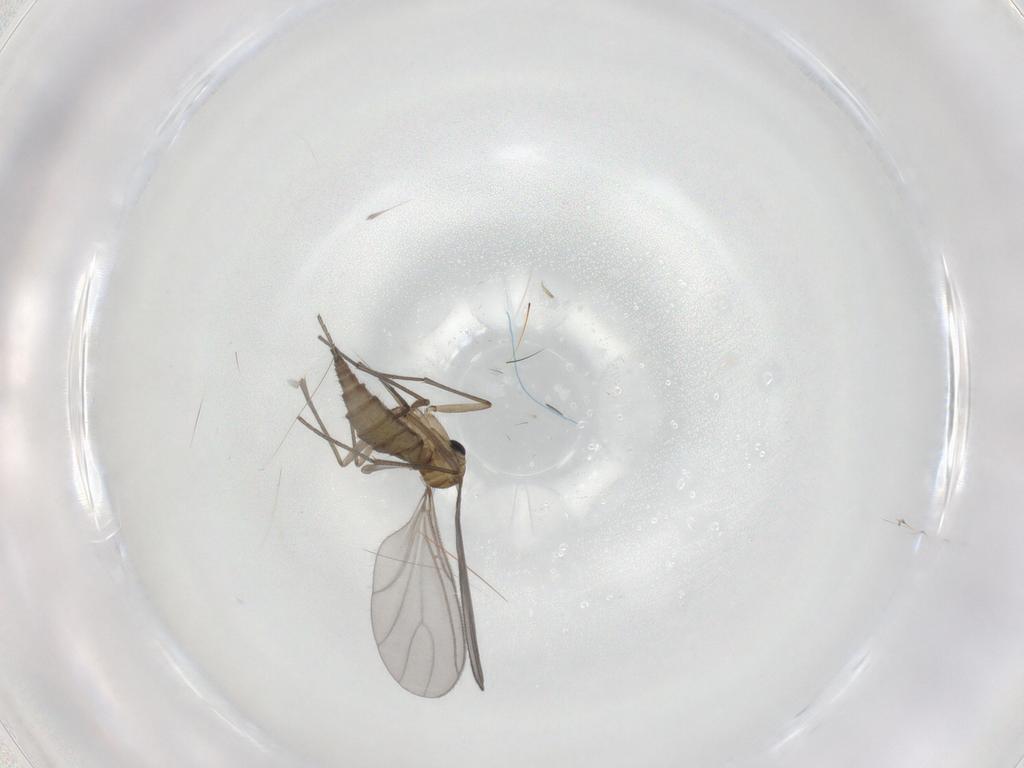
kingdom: Animalia
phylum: Arthropoda
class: Insecta
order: Diptera
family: Sciaridae
